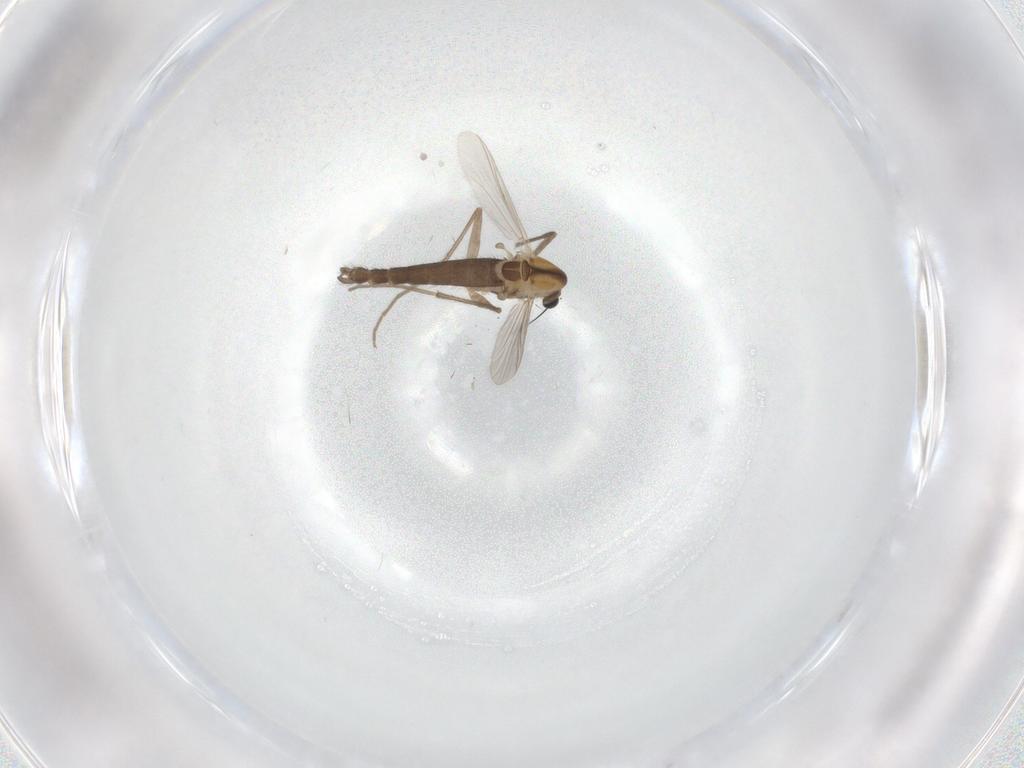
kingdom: Animalia
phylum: Arthropoda
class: Insecta
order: Diptera
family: Chironomidae
